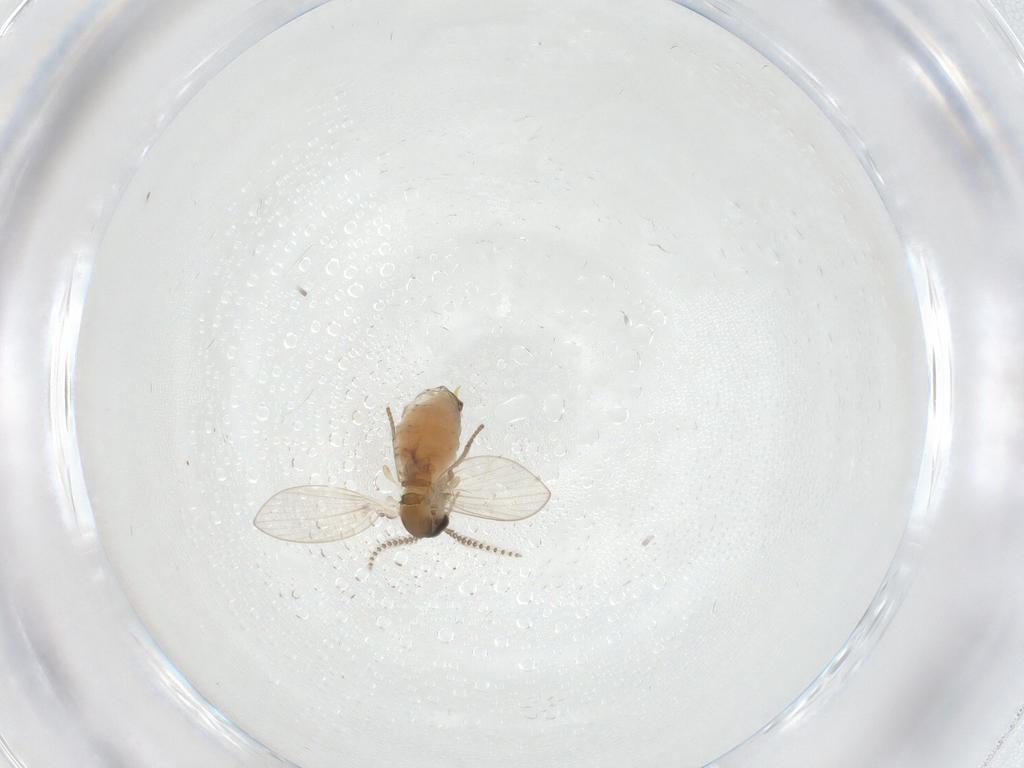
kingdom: Animalia
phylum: Arthropoda
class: Insecta
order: Diptera
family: Psychodidae
